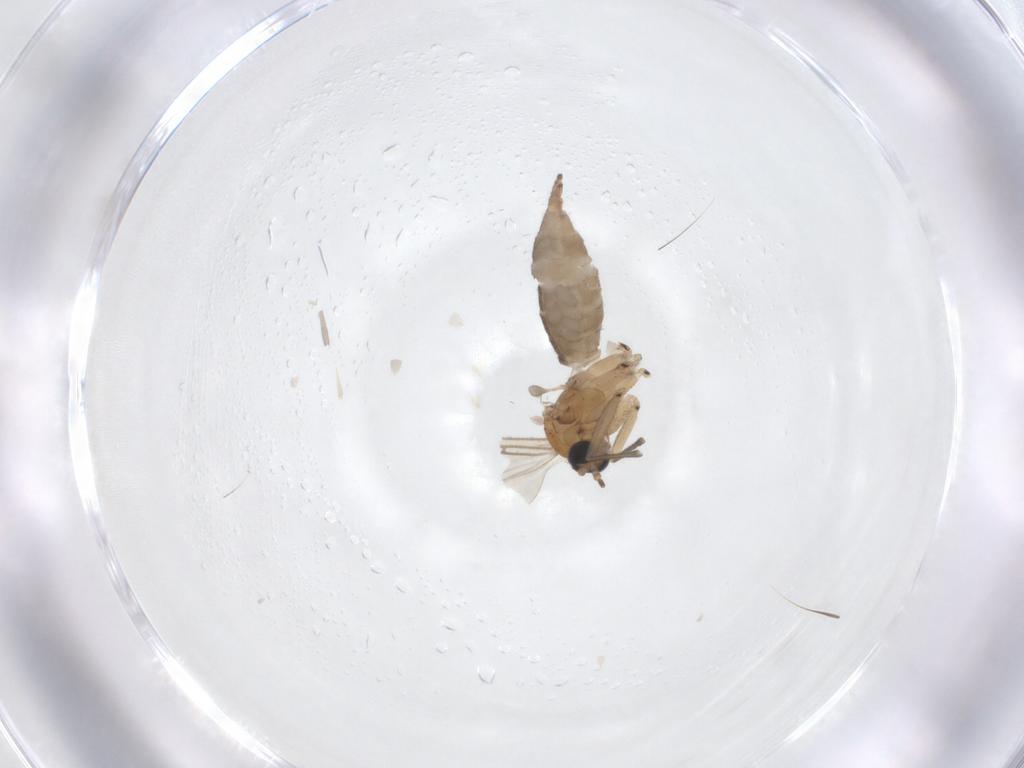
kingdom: Animalia
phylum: Arthropoda
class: Insecta
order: Diptera
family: Sciaridae
